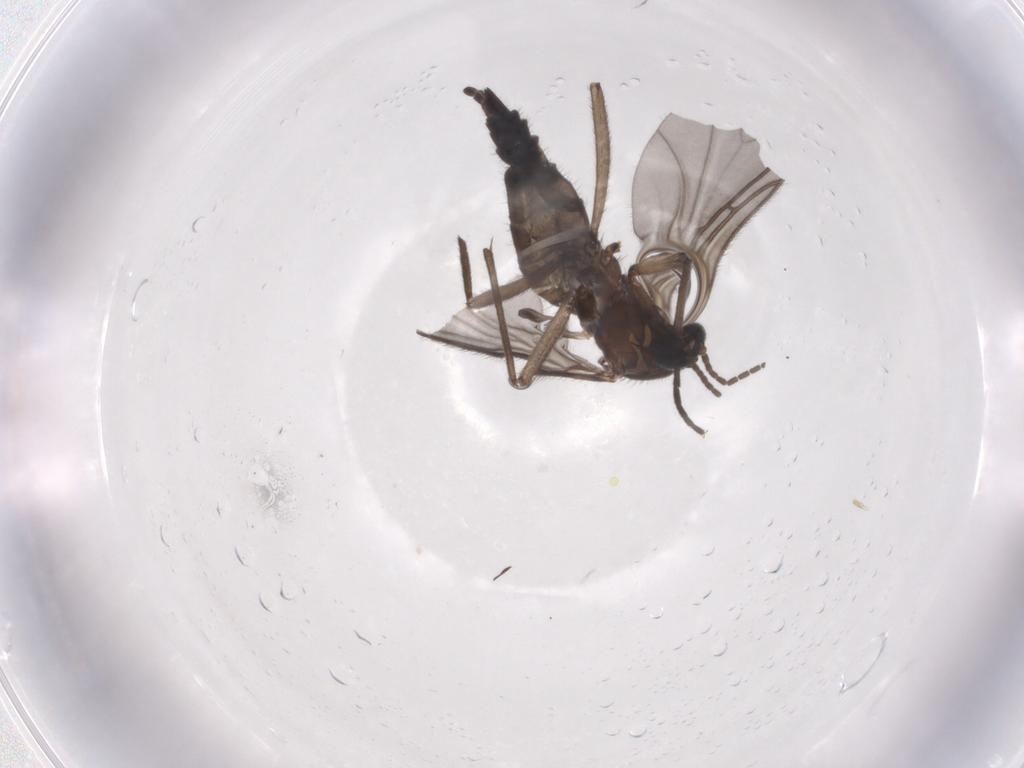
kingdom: Animalia
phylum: Arthropoda
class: Insecta
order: Diptera
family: Sciaridae
